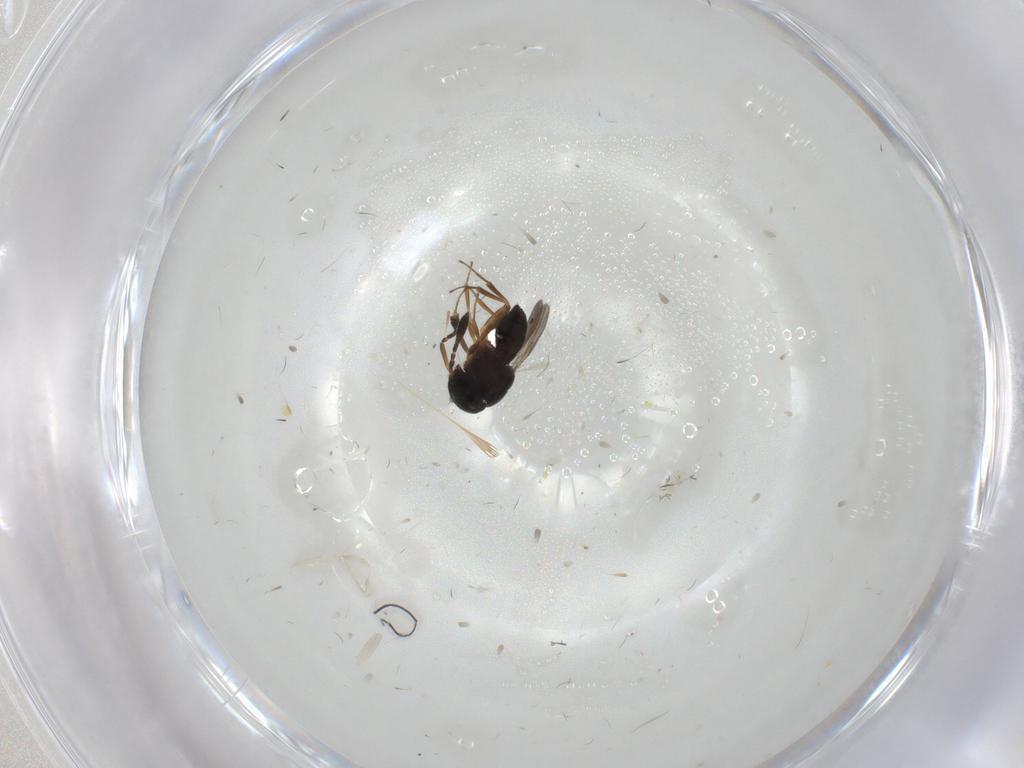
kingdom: Animalia
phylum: Arthropoda
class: Insecta
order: Hymenoptera
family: Scelionidae
